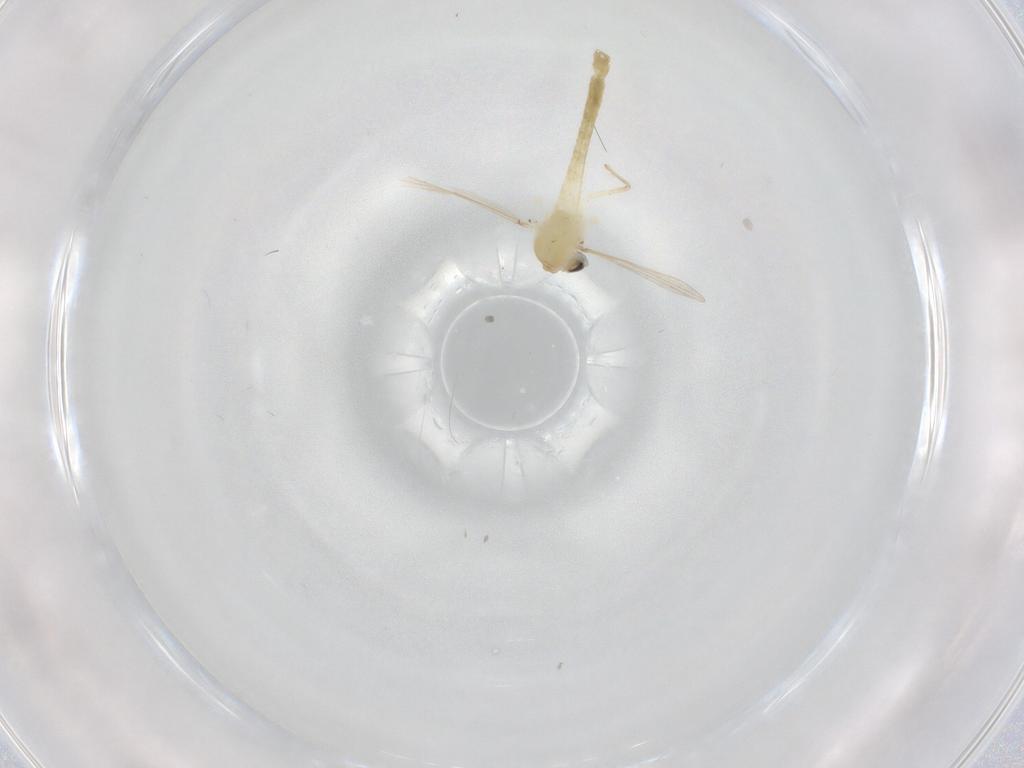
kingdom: Animalia
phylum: Arthropoda
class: Insecta
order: Diptera
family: Chironomidae
